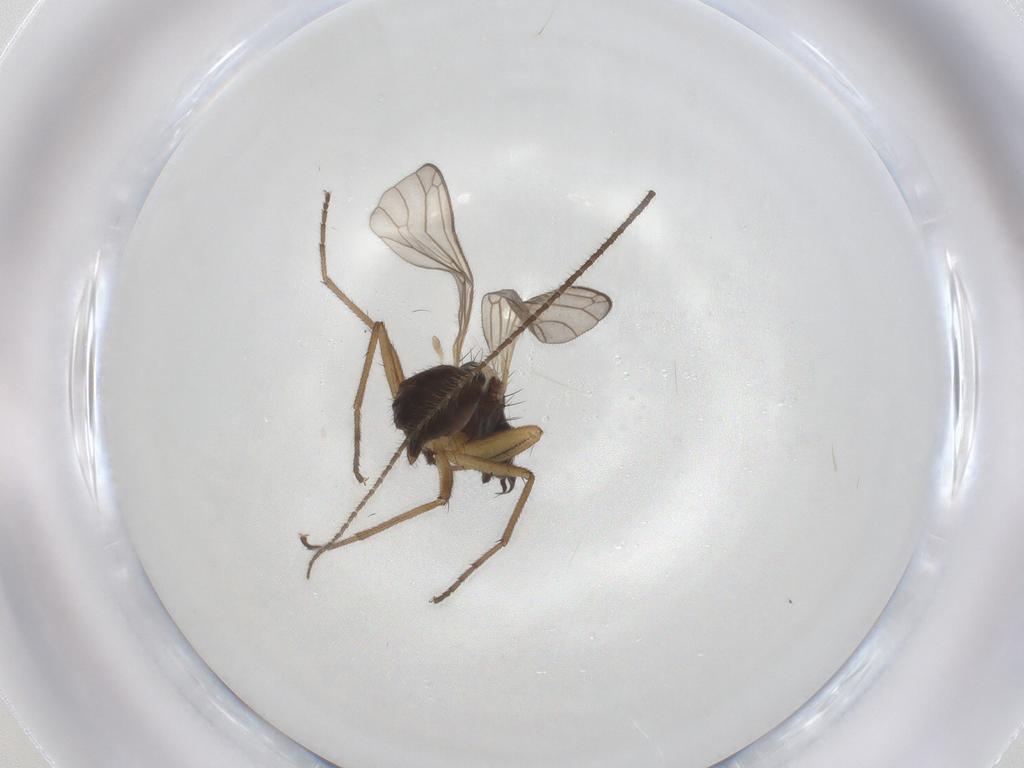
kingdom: Animalia
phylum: Arthropoda
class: Insecta
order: Diptera
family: Empididae
